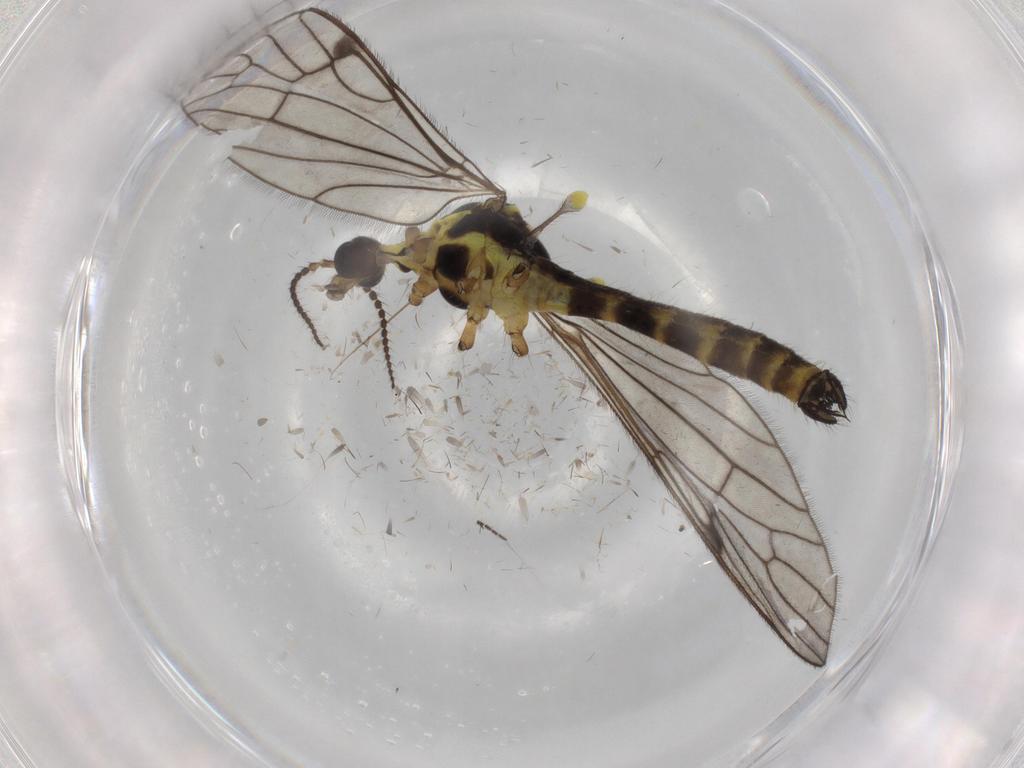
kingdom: Animalia
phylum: Arthropoda
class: Insecta
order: Diptera
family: Limoniidae
